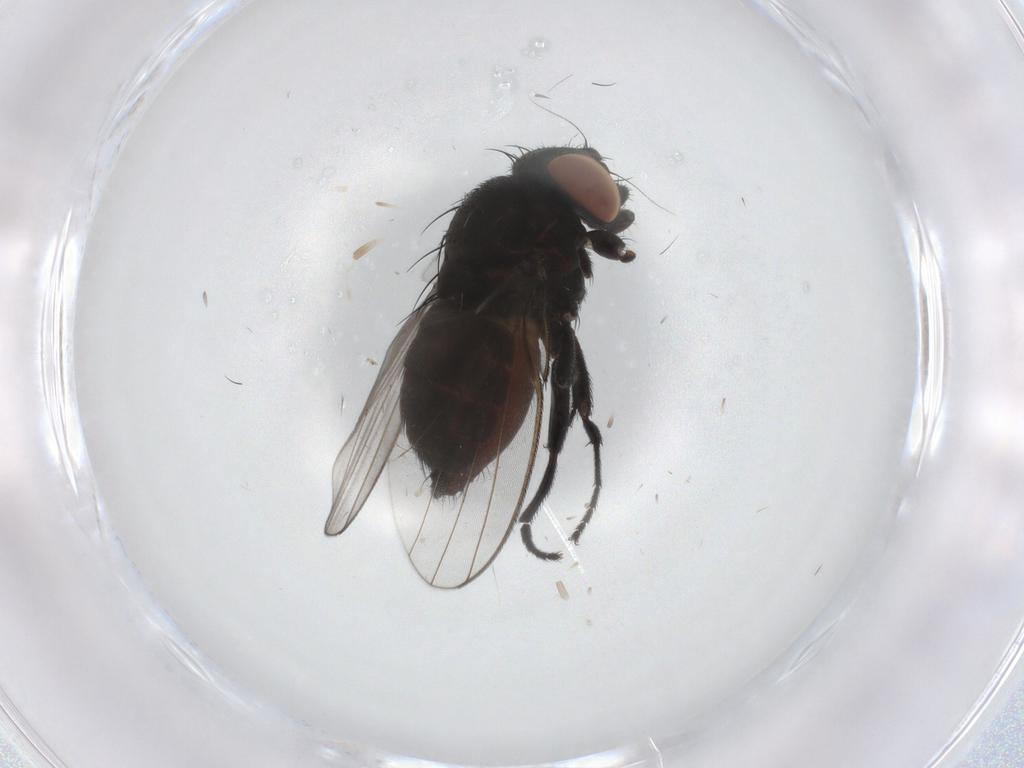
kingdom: Animalia
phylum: Arthropoda
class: Insecta
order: Diptera
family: Milichiidae
